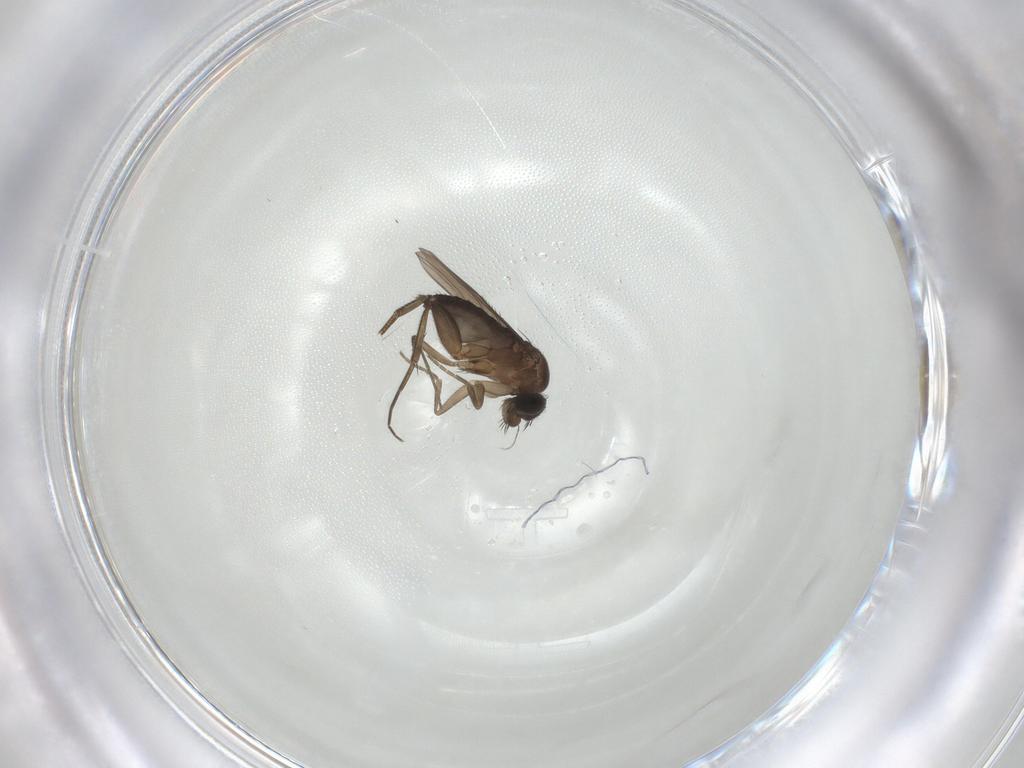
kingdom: Animalia
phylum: Arthropoda
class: Insecta
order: Diptera
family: Phoridae
